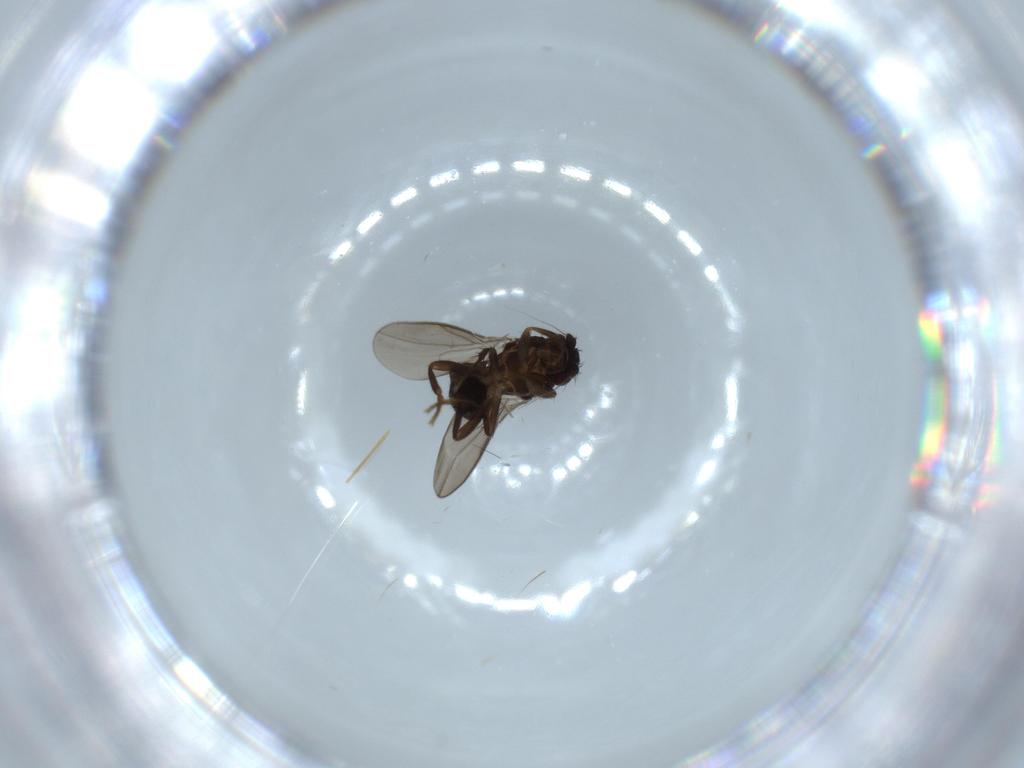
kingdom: Animalia
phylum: Arthropoda
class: Insecta
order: Diptera
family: Sphaeroceridae
